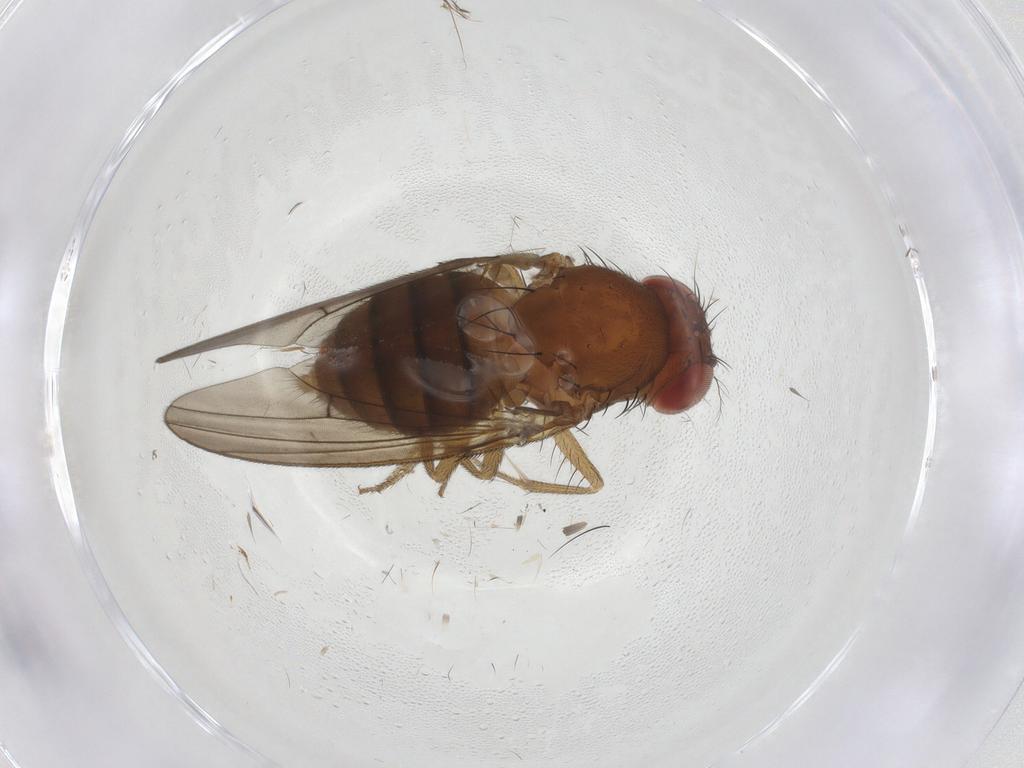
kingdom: Animalia
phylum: Arthropoda
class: Insecta
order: Diptera
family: Drosophilidae
